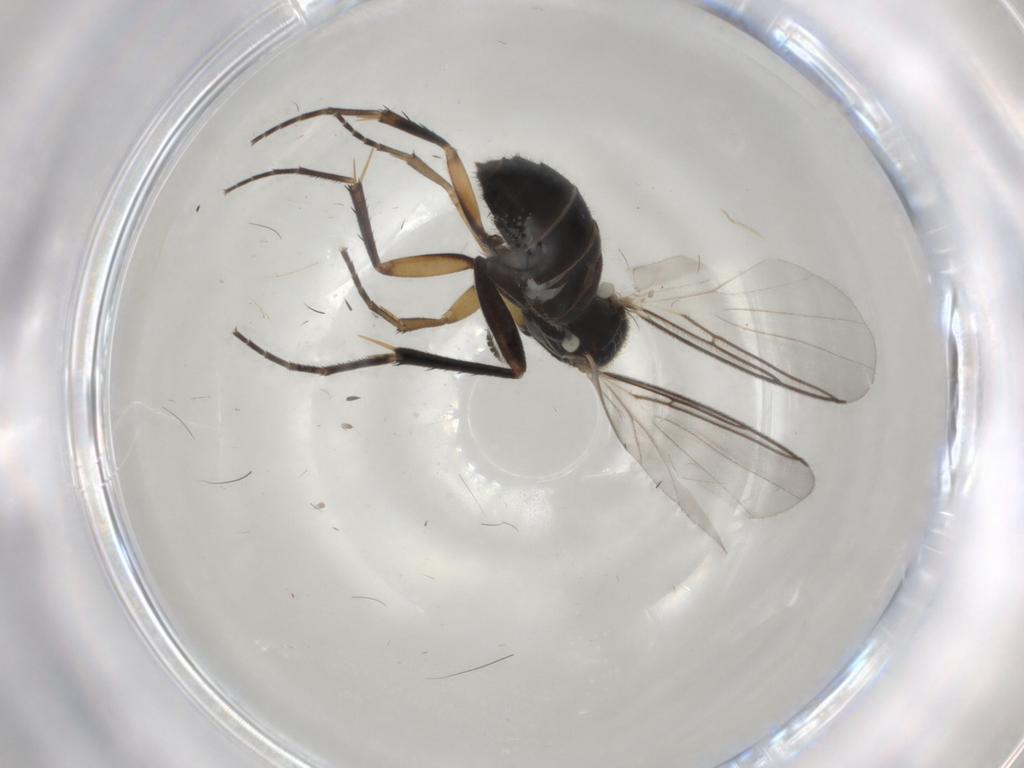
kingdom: Animalia
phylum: Arthropoda
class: Insecta
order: Diptera
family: Mycetophilidae
